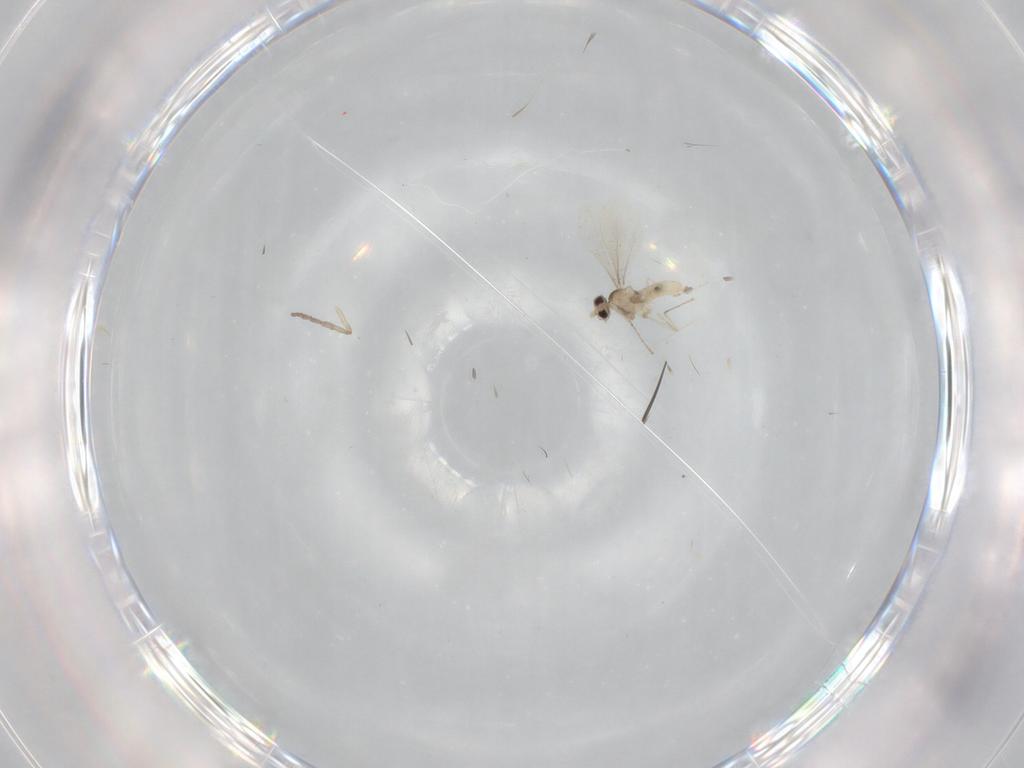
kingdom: Animalia
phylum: Arthropoda
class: Insecta
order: Diptera
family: Cecidomyiidae
